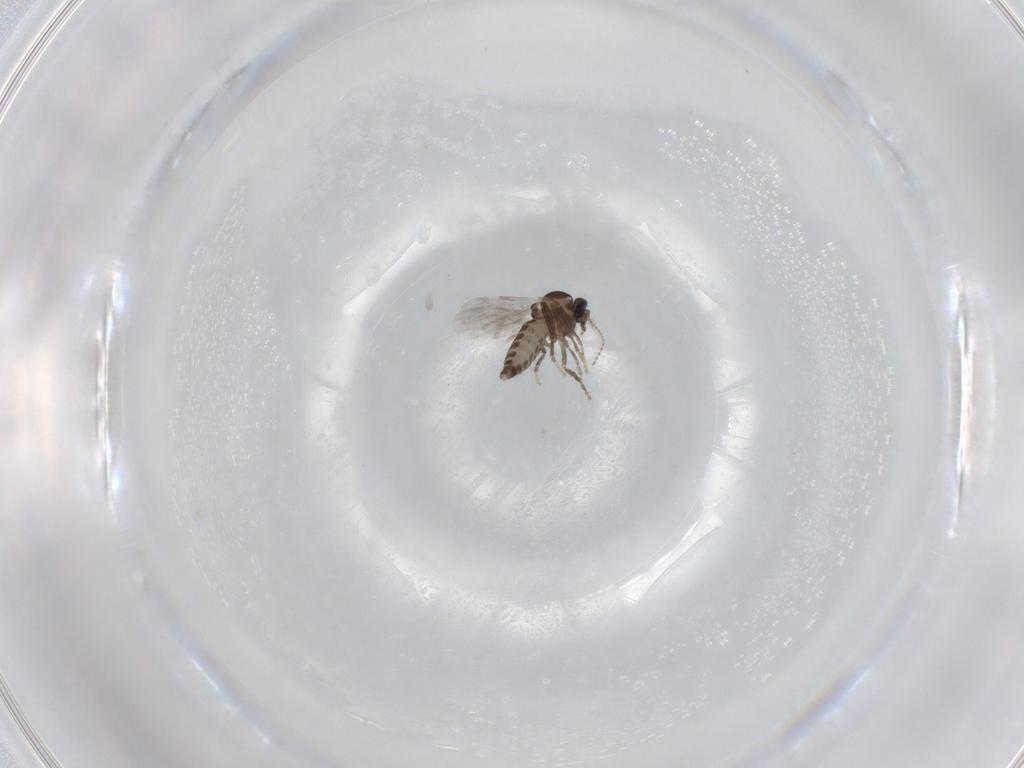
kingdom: Animalia
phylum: Arthropoda
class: Insecta
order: Diptera
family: Ceratopogonidae
